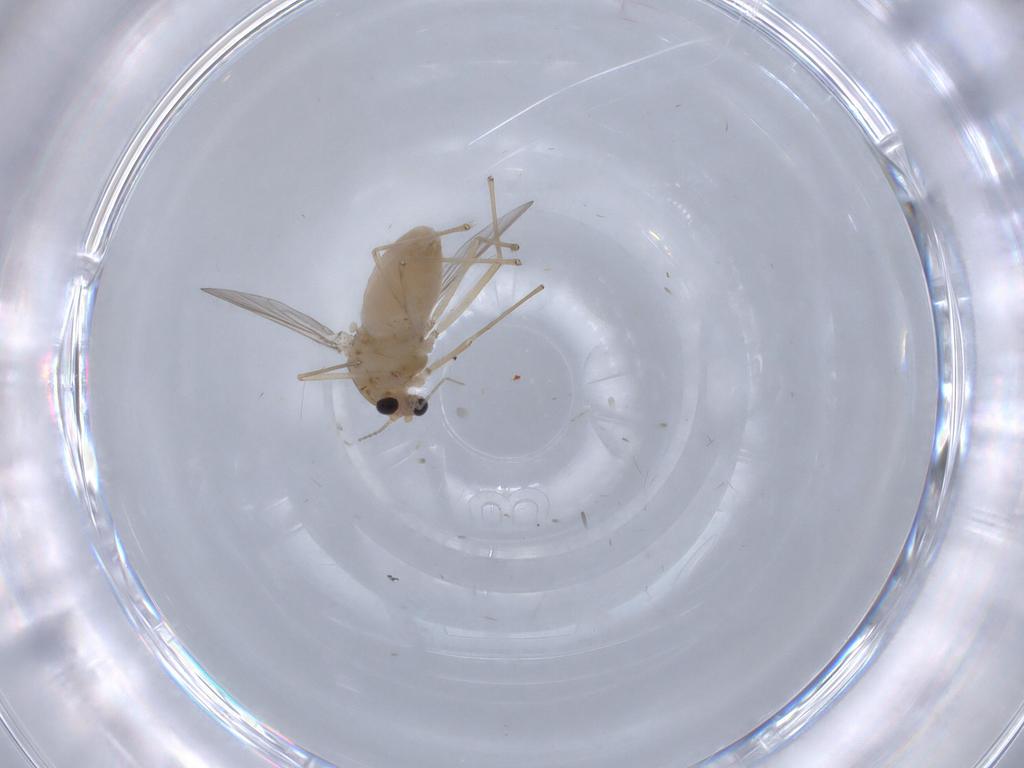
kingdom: Animalia
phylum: Arthropoda
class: Insecta
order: Diptera
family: Chironomidae
